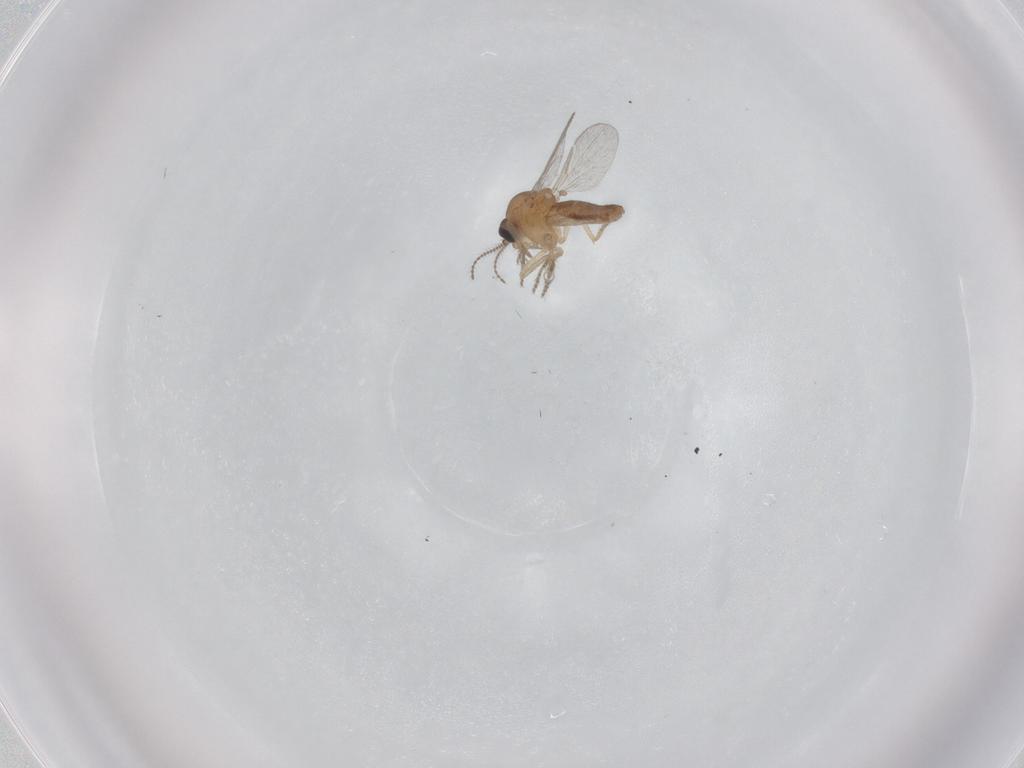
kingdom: Animalia
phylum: Arthropoda
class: Insecta
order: Diptera
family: Ceratopogonidae
